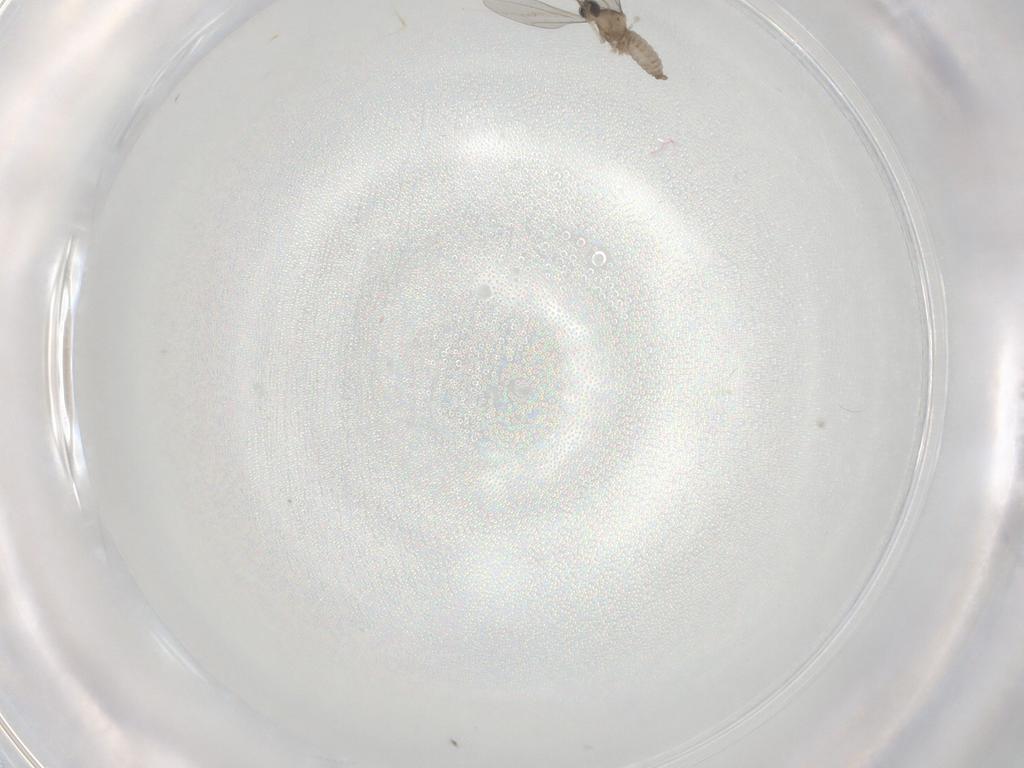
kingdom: Animalia
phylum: Arthropoda
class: Insecta
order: Diptera
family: Cecidomyiidae
